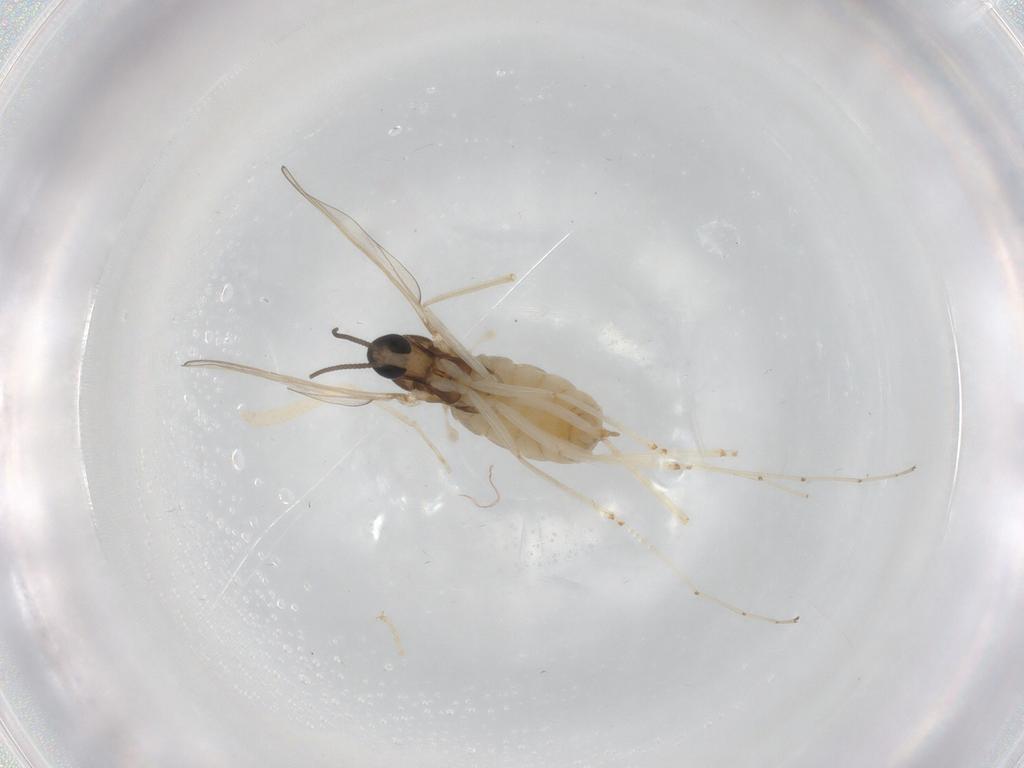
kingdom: Animalia
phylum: Arthropoda
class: Insecta
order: Diptera
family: Cecidomyiidae
